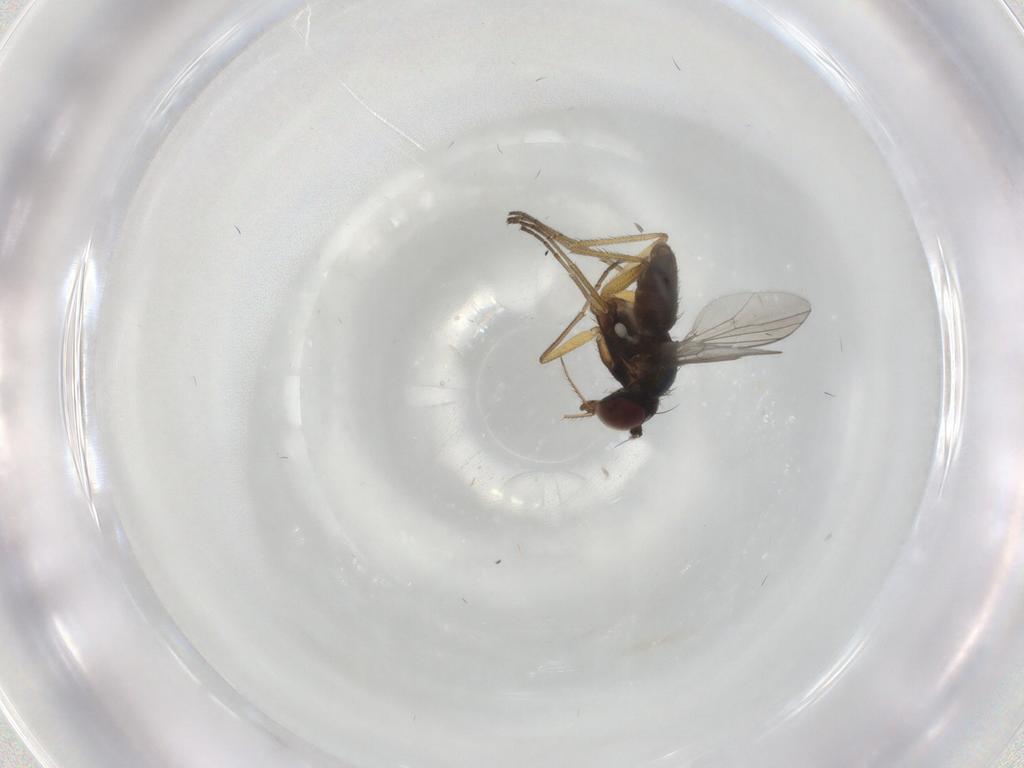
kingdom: Animalia
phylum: Arthropoda
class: Insecta
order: Diptera
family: Dolichopodidae
